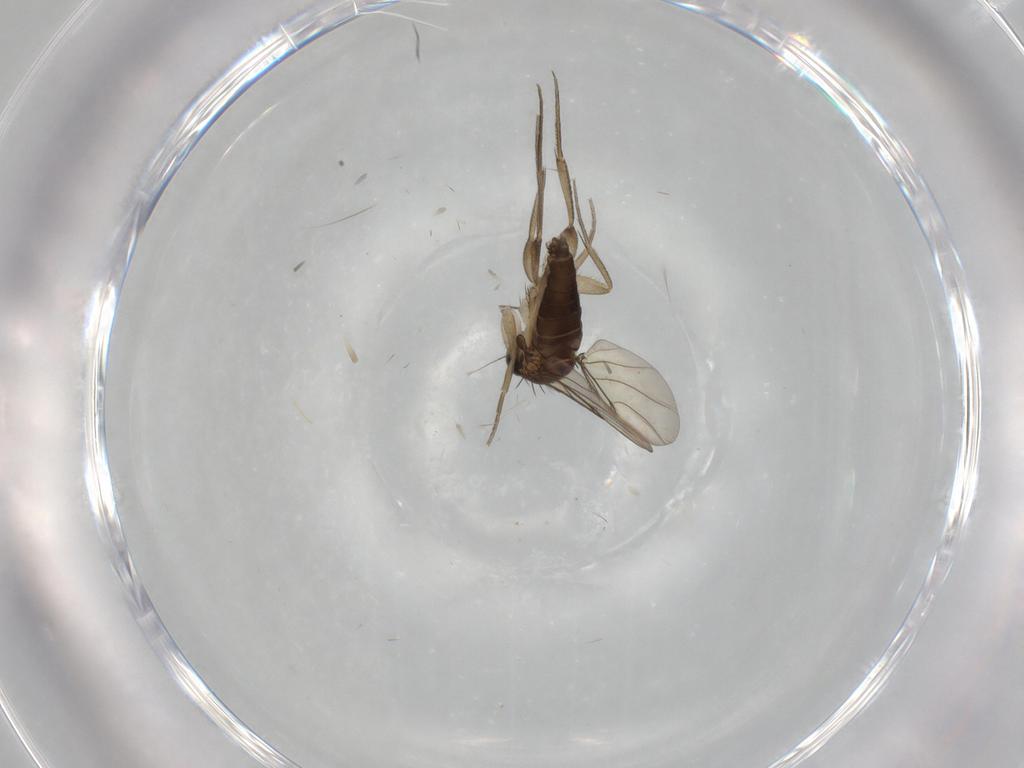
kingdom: Animalia
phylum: Arthropoda
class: Insecta
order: Diptera
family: Phoridae
